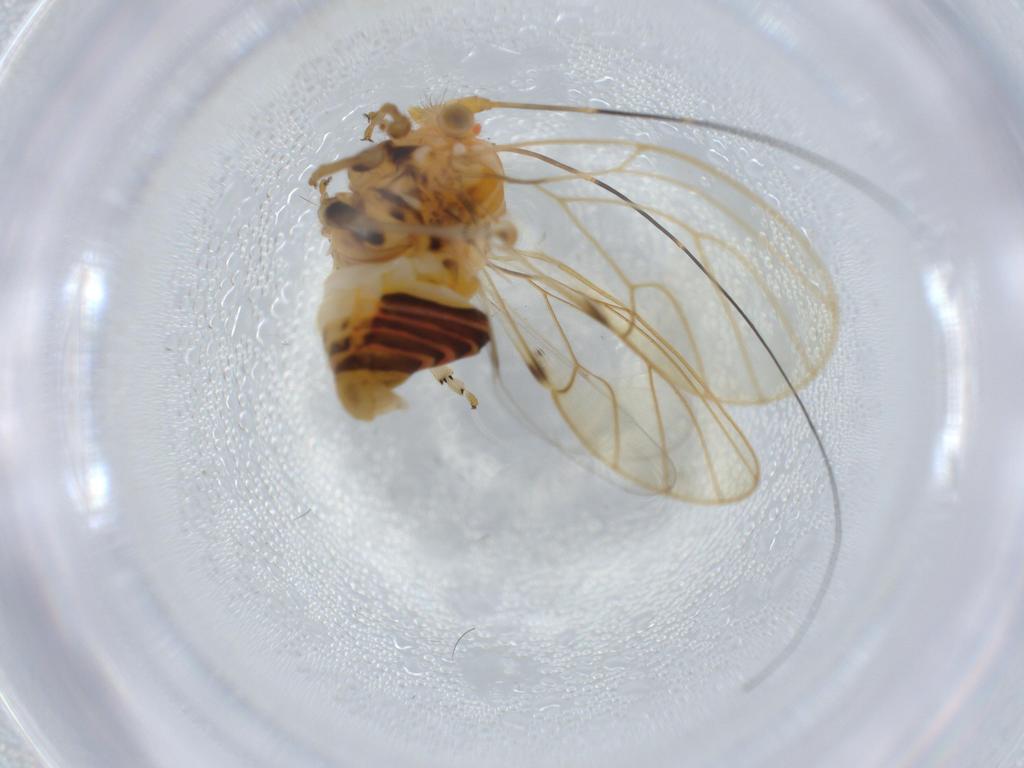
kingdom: Animalia
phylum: Arthropoda
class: Insecta
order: Hemiptera
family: Psyllidae
